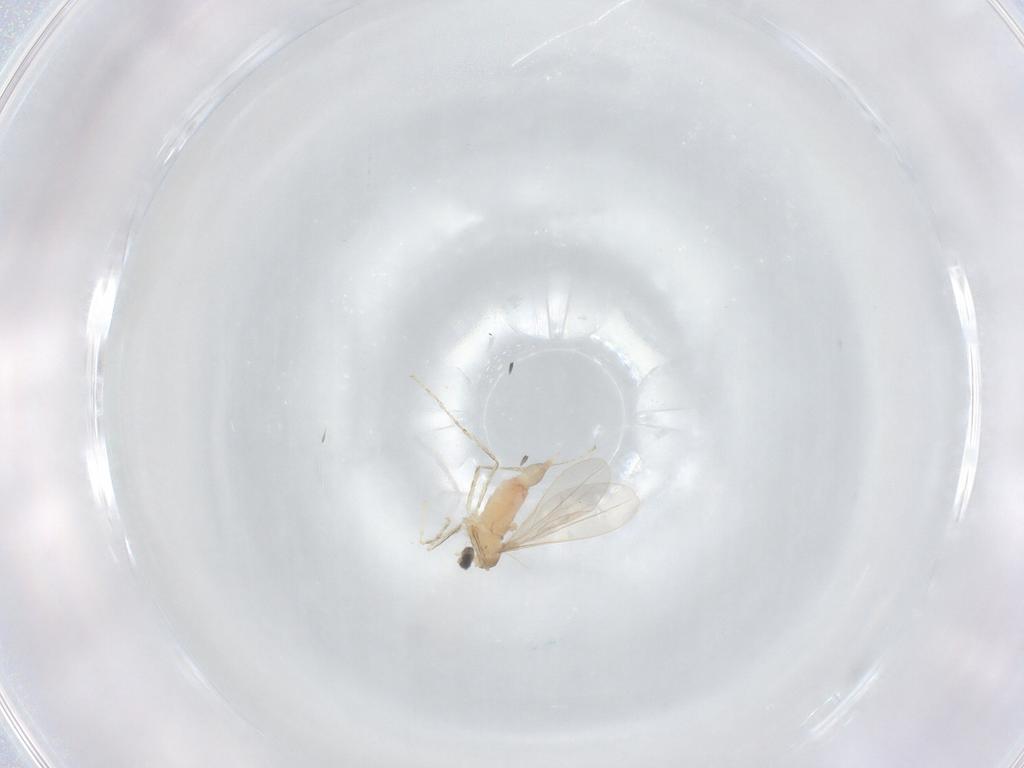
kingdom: Animalia
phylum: Arthropoda
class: Insecta
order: Diptera
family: Cecidomyiidae
